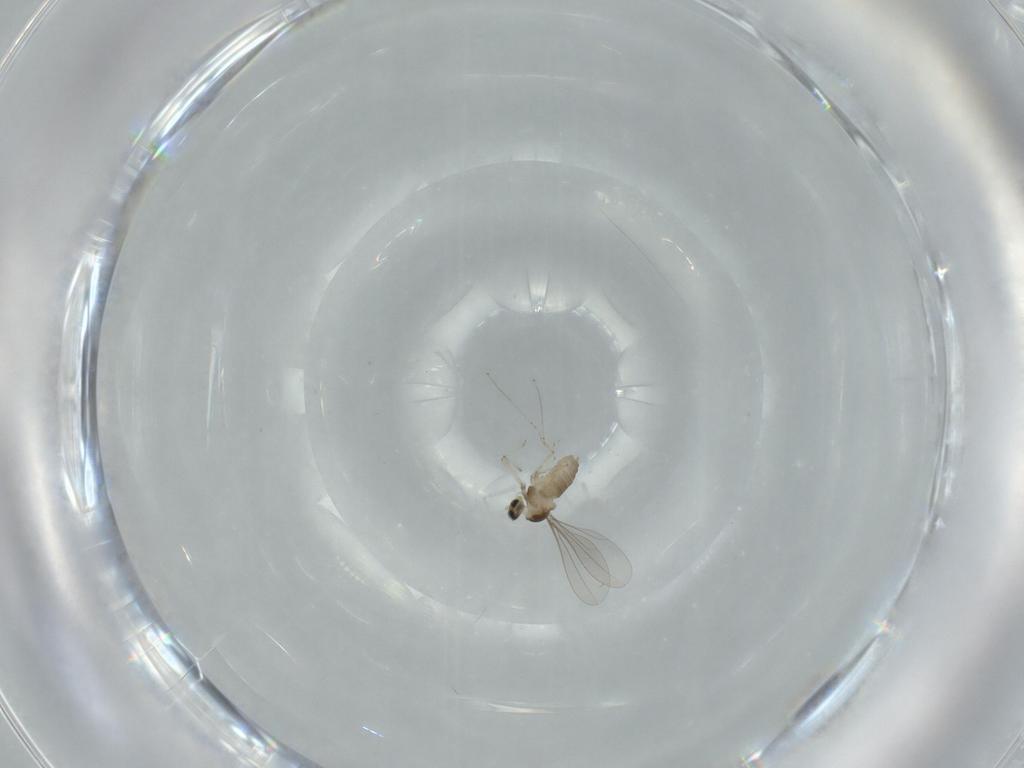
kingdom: Animalia
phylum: Arthropoda
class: Insecta
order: Diptera
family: Cecidomyiidae
